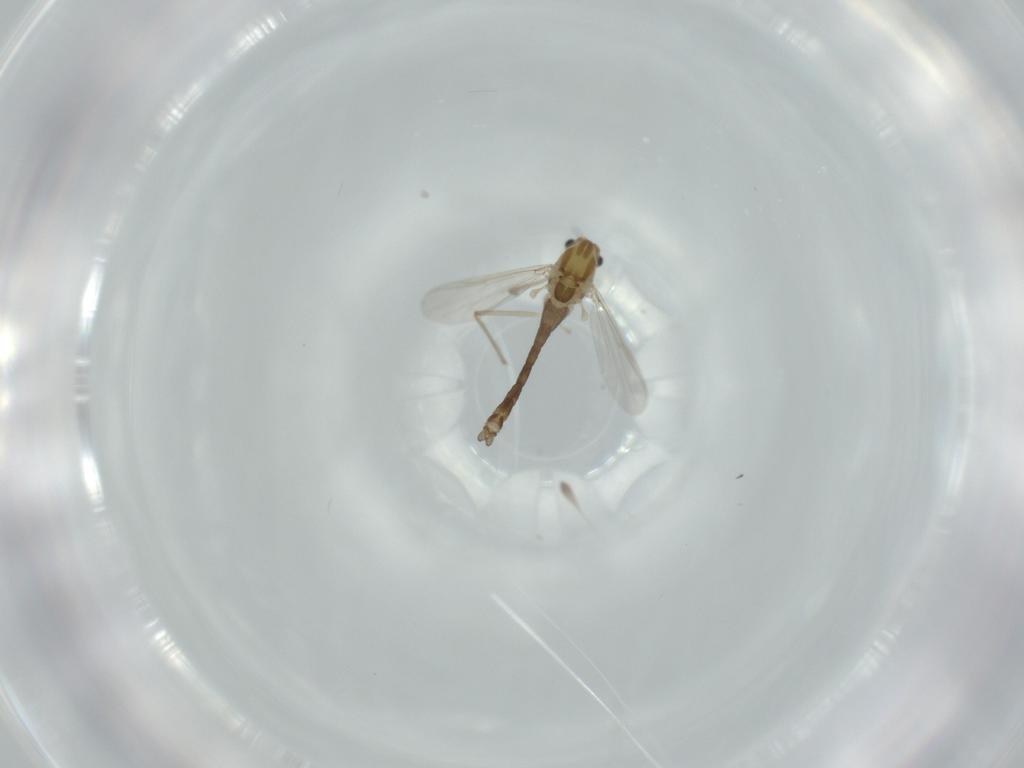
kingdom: Animalia
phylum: Arthropoda
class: Insecta
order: Diptera
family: Chironomidae
